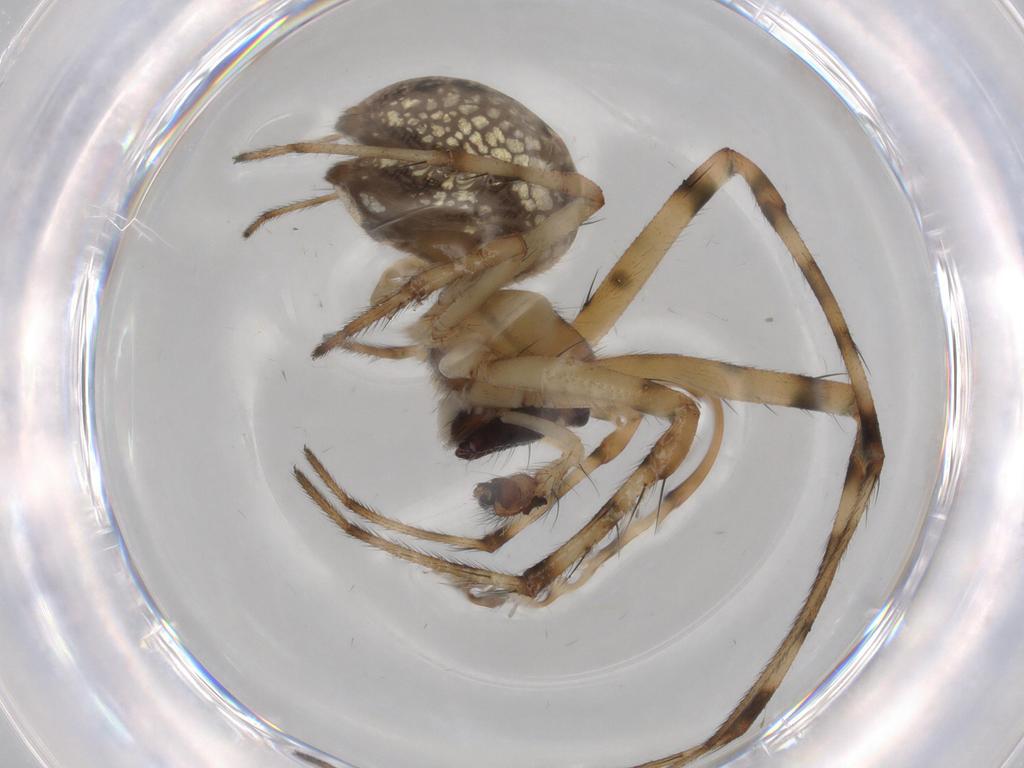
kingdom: Animalia
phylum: Arthropoda
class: Arachnida
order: Araneae
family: Tetragnathidae
